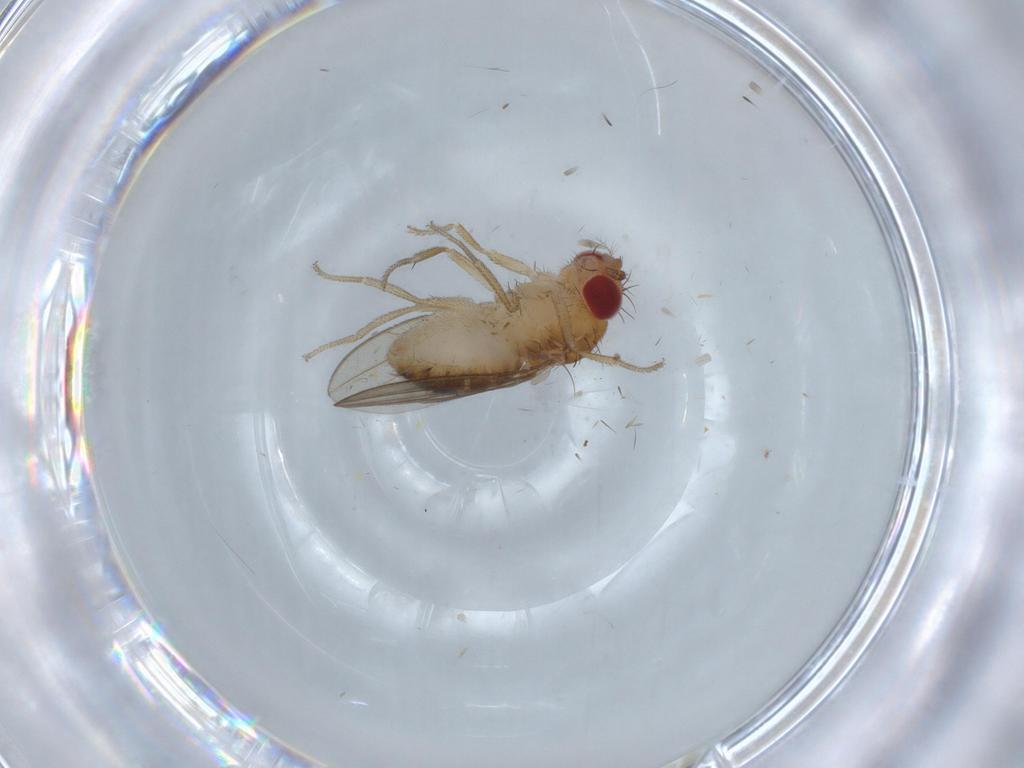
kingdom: Animalia
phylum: Arthropoda
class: Insecta
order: Diptera
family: Drosophilidae
